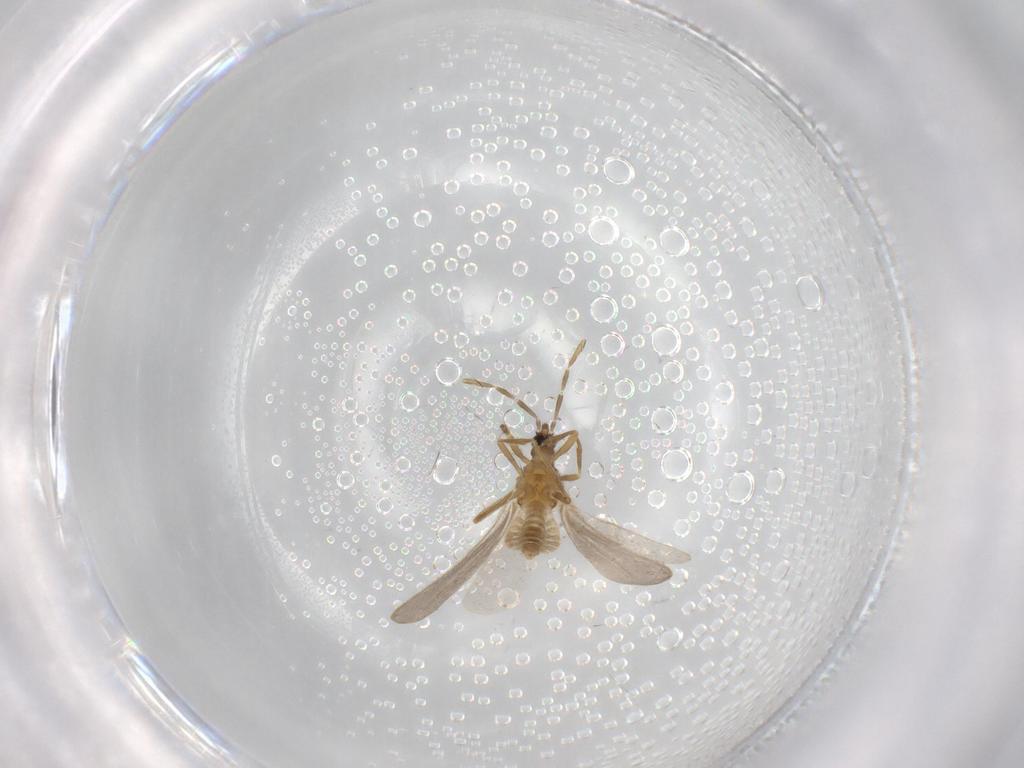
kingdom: Animalia
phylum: Arthropoda
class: Insecta
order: Hemiptera
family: Enicocephalidae
